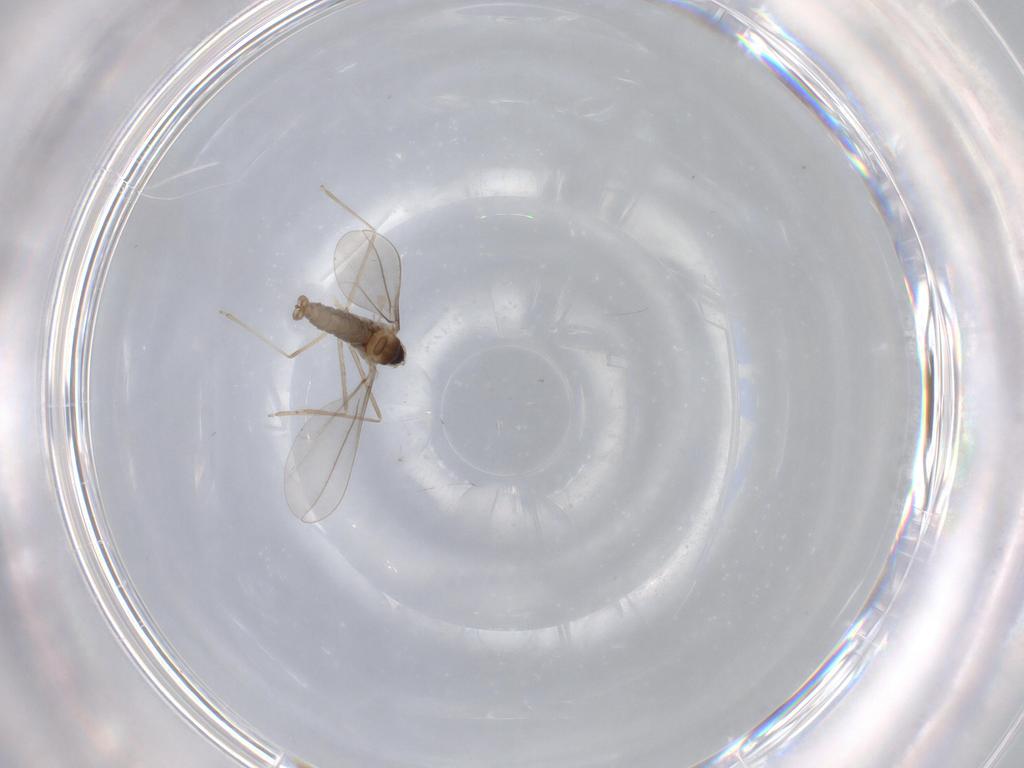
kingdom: Animalia
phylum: Arthropoda
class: Insecta
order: Diptera
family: Cecidomyiidae
